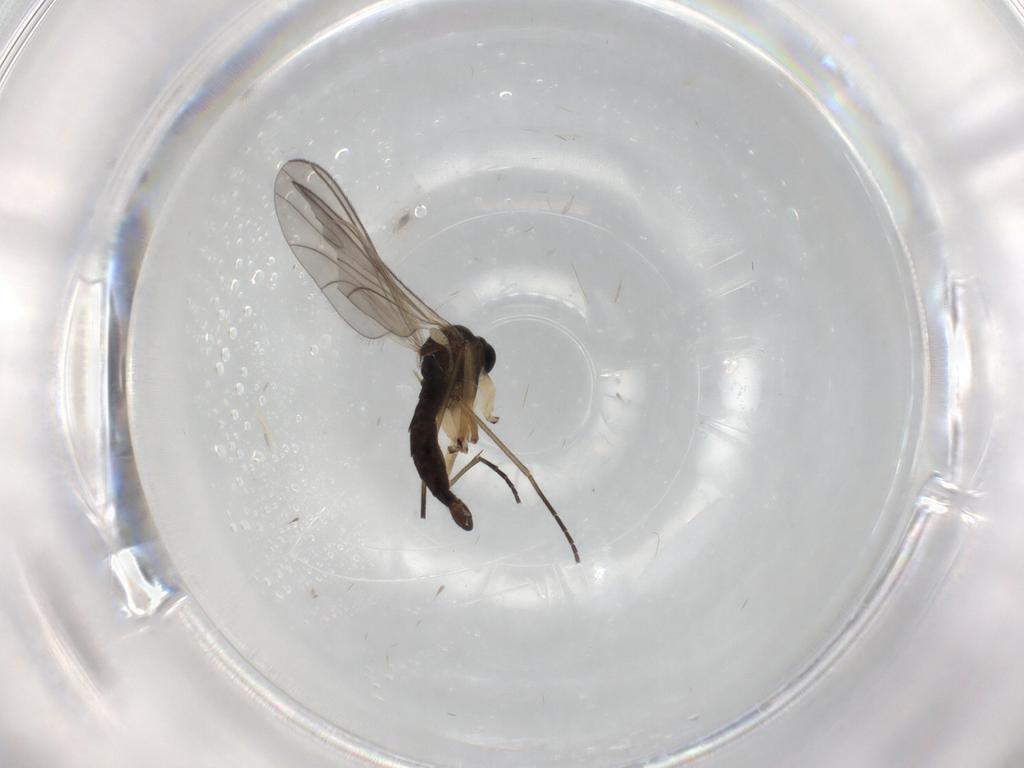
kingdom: Animalia
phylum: Arthropoda
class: Insecta
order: Diptera
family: Sciaridae
